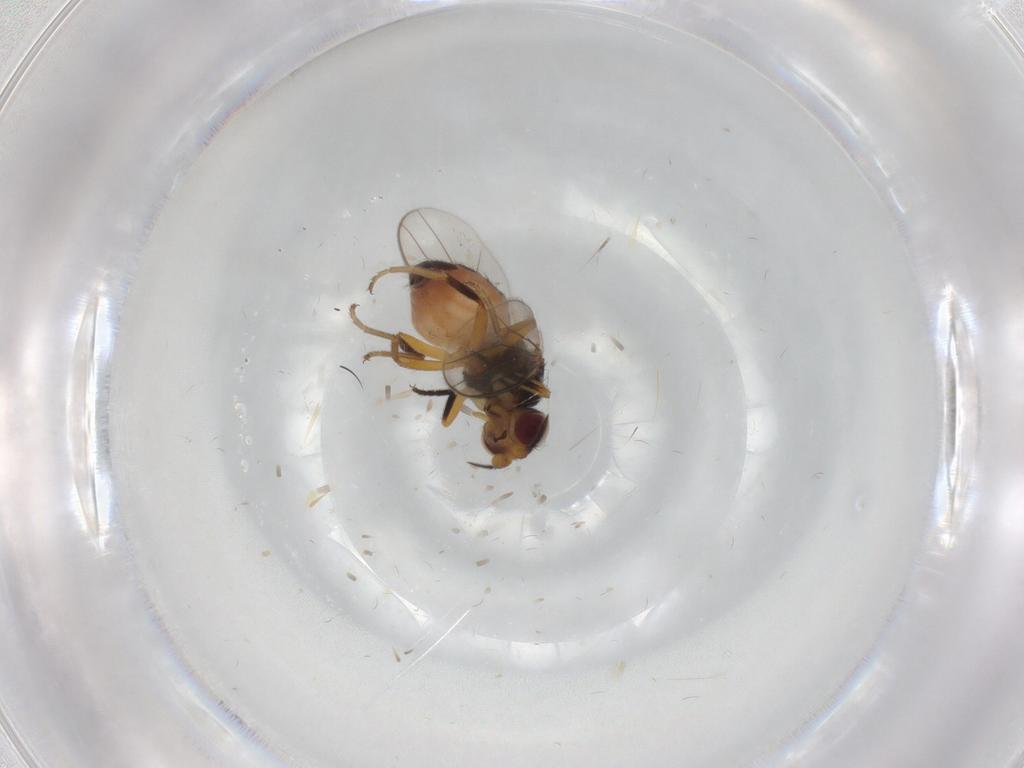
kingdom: Animalia
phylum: Arthropoda
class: Insecta
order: Diptera
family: Chloropidae
